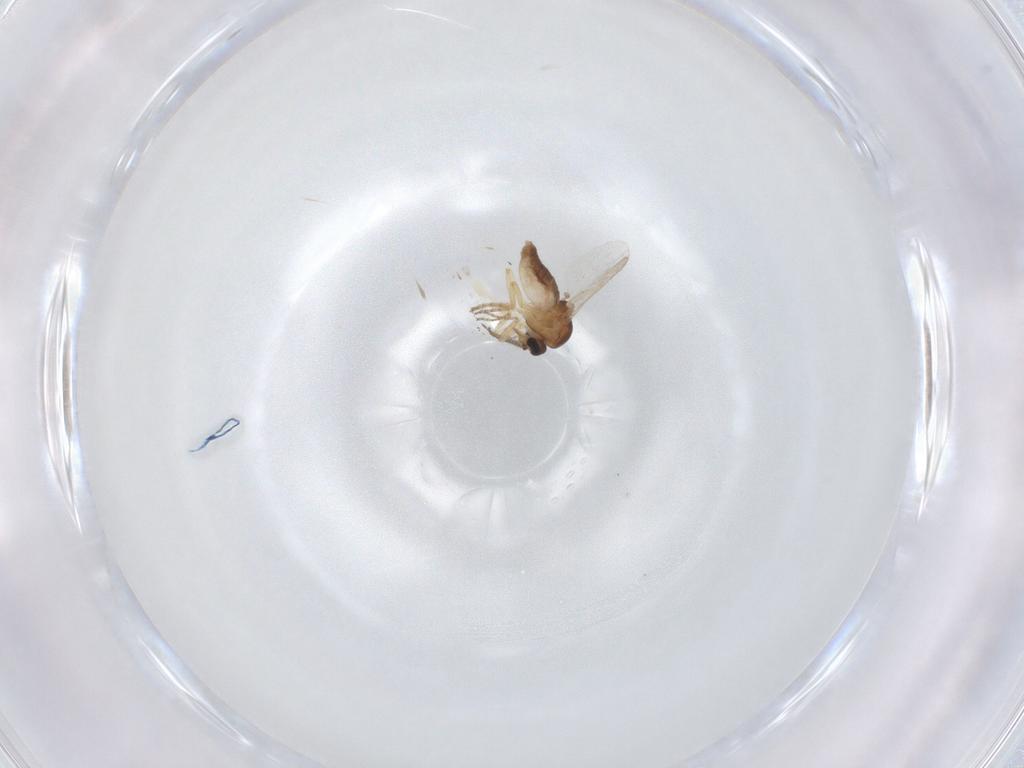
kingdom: Animalia
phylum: Arthropoda
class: Insecta
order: Diptera
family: Ceratopogonidae
